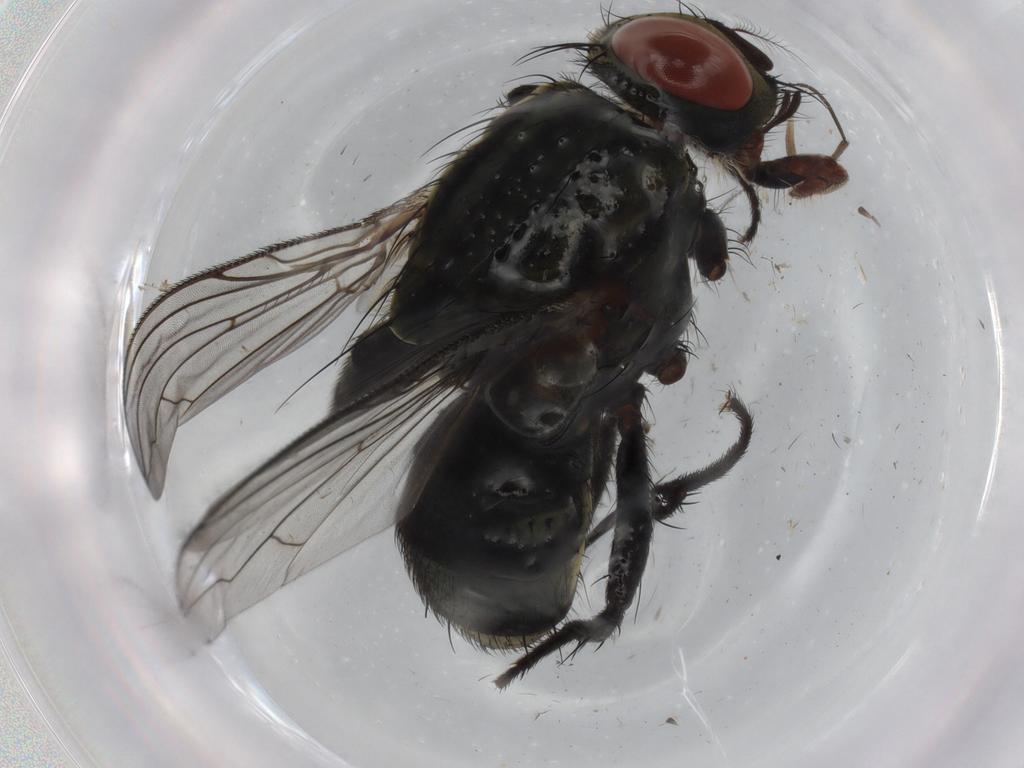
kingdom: Animalia
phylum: Arthropoda
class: Insecta
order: Diptera
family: Sarcophagidae
